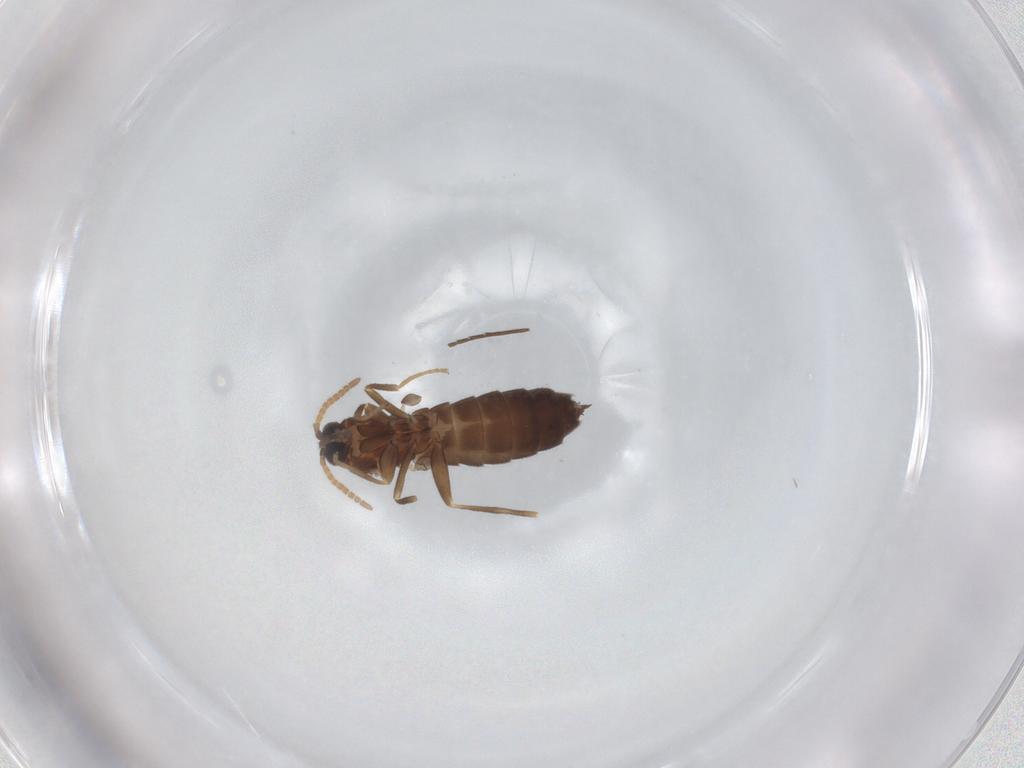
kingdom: Animalia
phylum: Arthropoda
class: Insecta
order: Diptera
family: Scatopsidae
